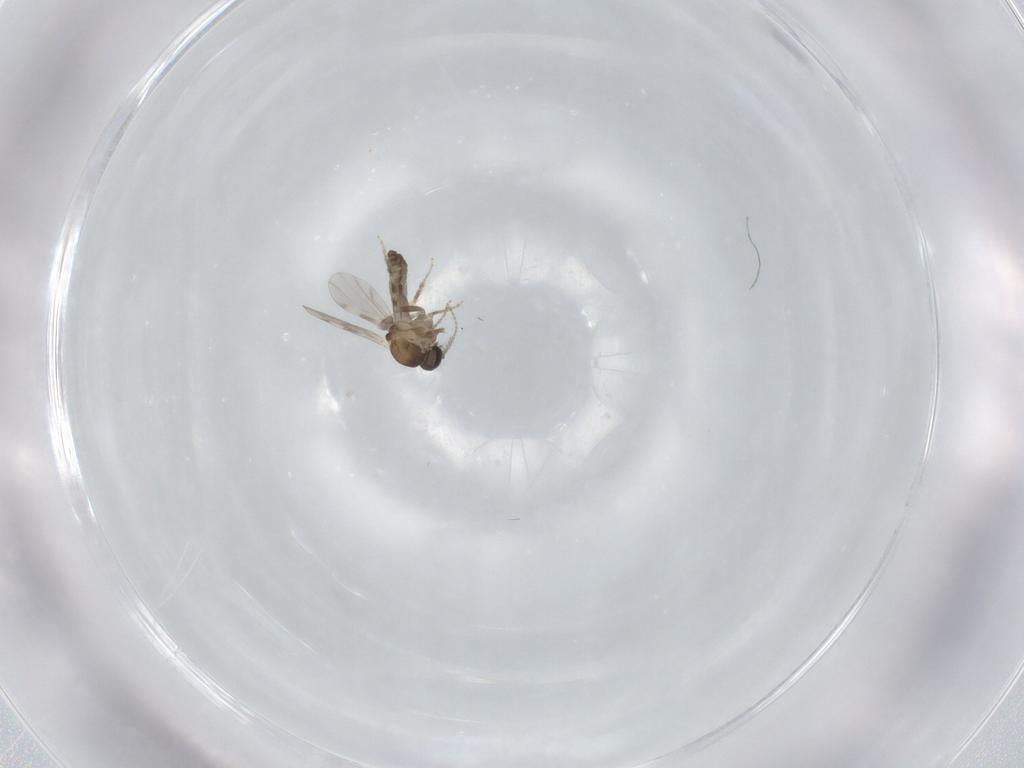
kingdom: Animalia
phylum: Arthropoda
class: Insecta
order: Diptera
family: Ceratopogonidae
